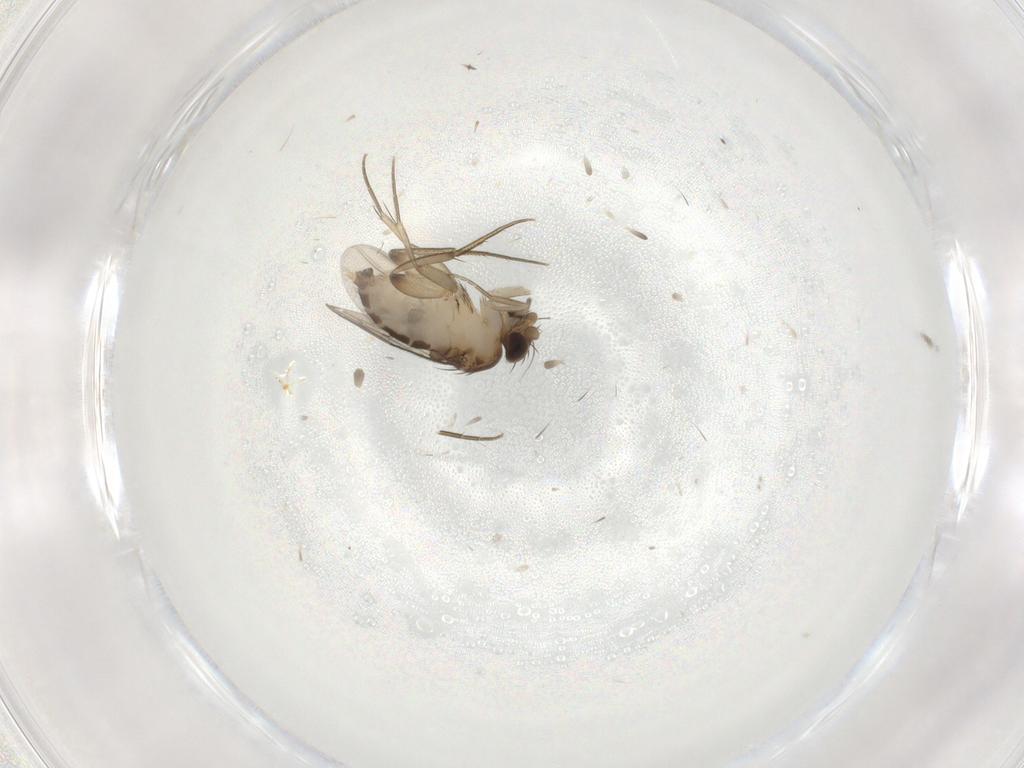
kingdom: Animalia
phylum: Arthropoda
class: Insecta
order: Diptera
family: Phoridae
